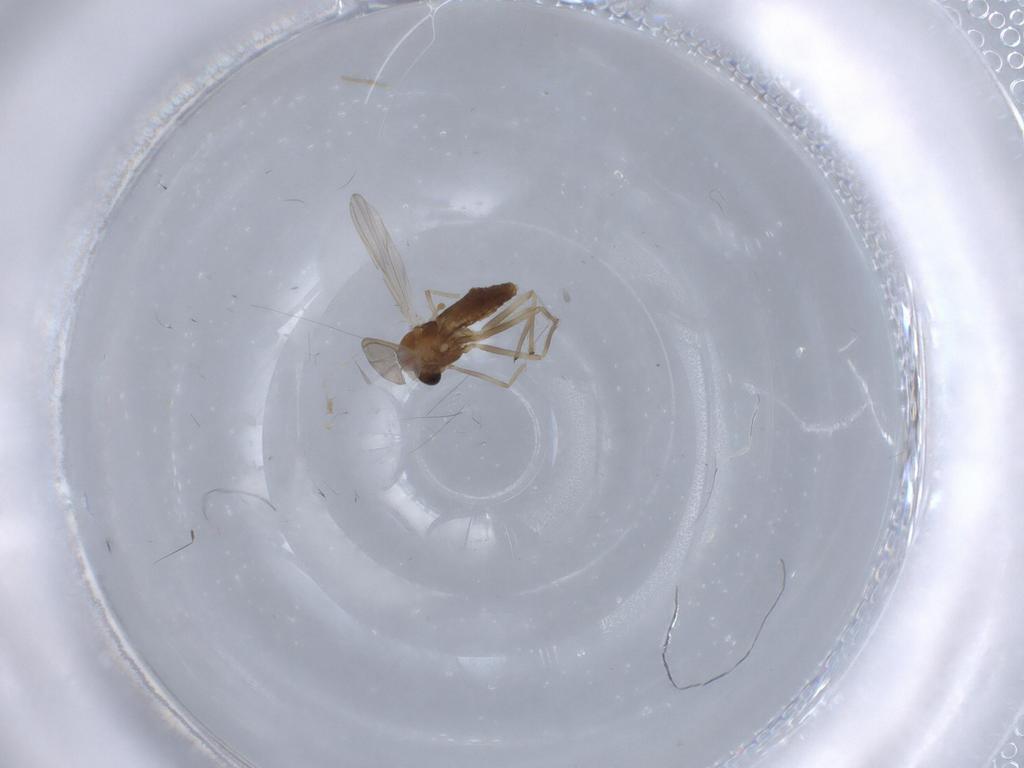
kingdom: Animalia
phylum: Arthropoda
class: Insecta
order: Diptera
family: Chironomidae
